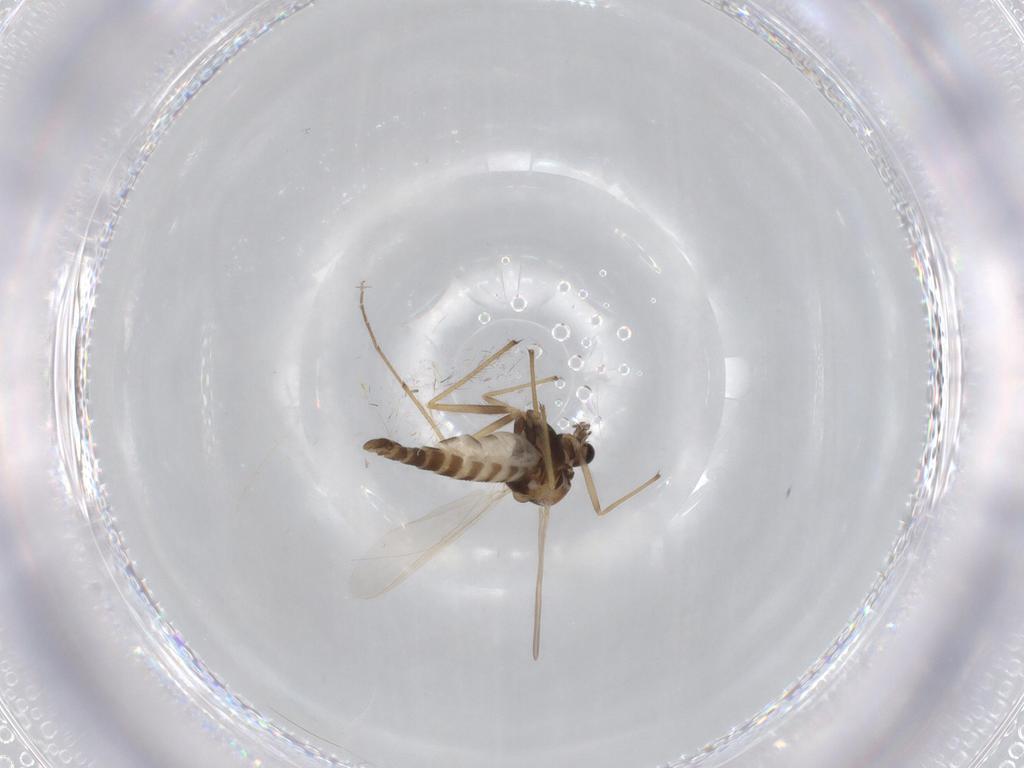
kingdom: Animalia
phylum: Arthropoda
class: Insecta
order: Diptera
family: Chironomidae
